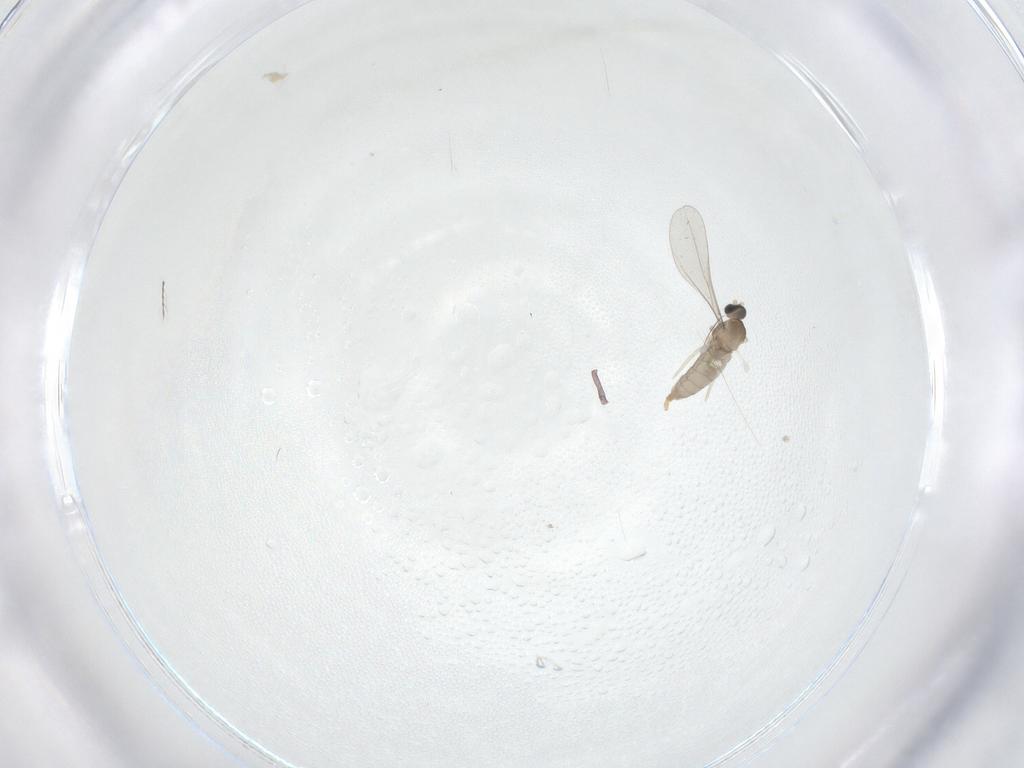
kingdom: Animalia
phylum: Arthropoda
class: Insecta
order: Diptera
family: Chironomidae
